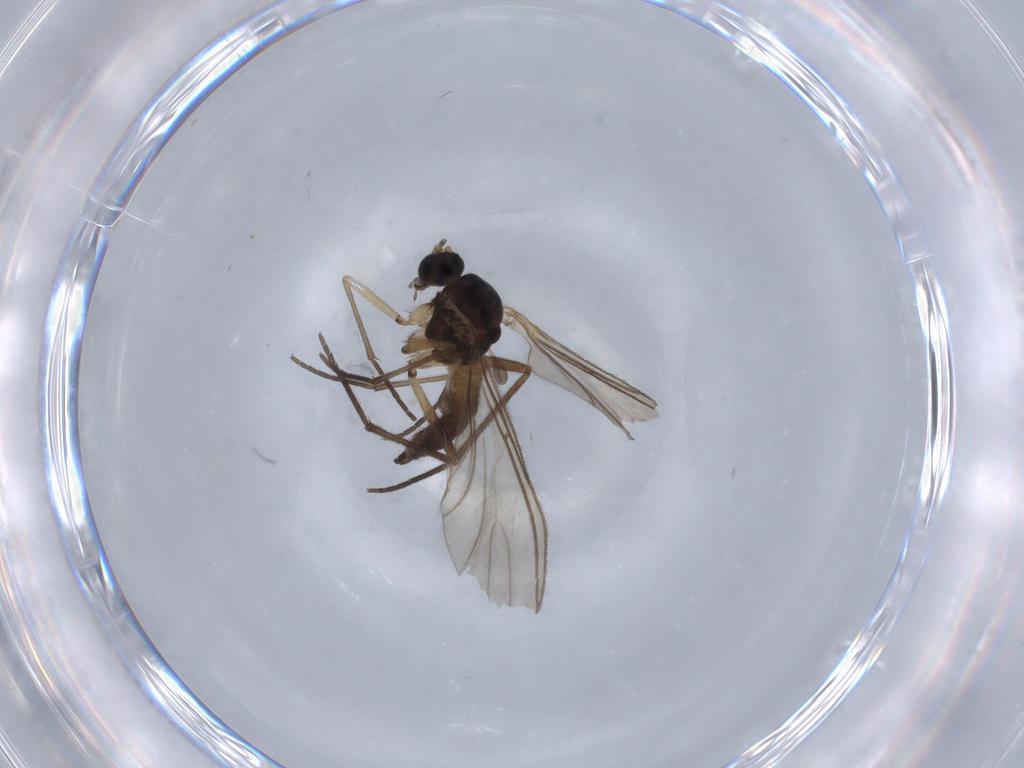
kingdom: Animalia
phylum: Arthropoda
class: Insecta
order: Diptera
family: Sciaridae
